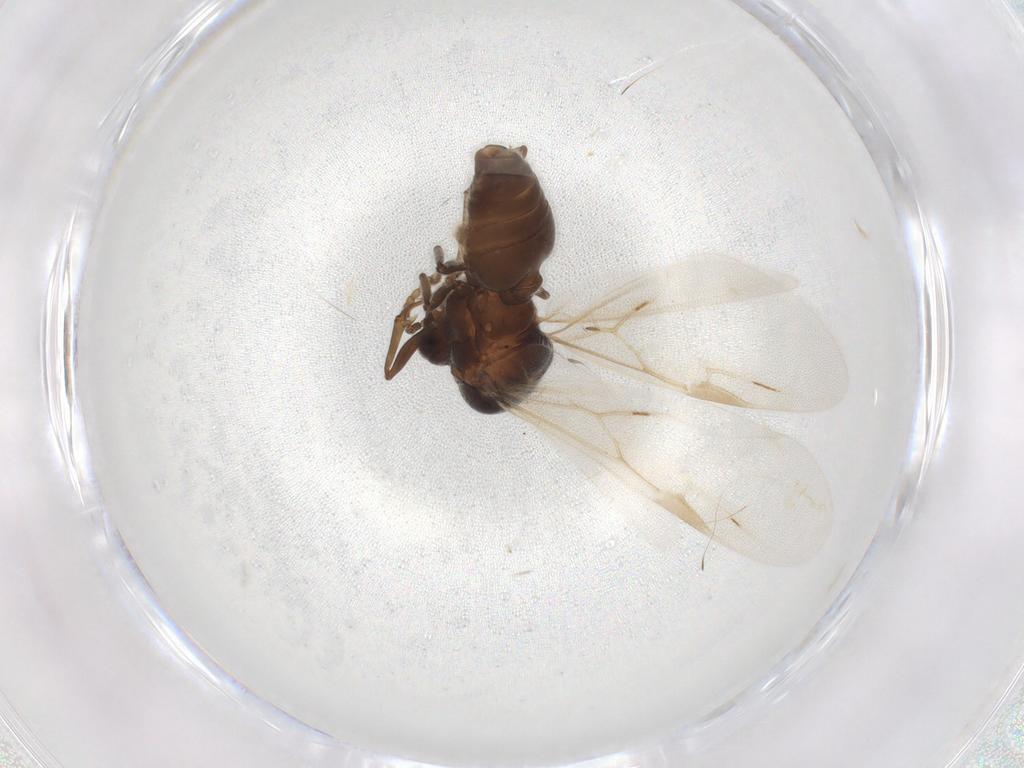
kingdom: Animalia
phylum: Arthropoda
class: Insecta
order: Hymenoptera
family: Formicidae
